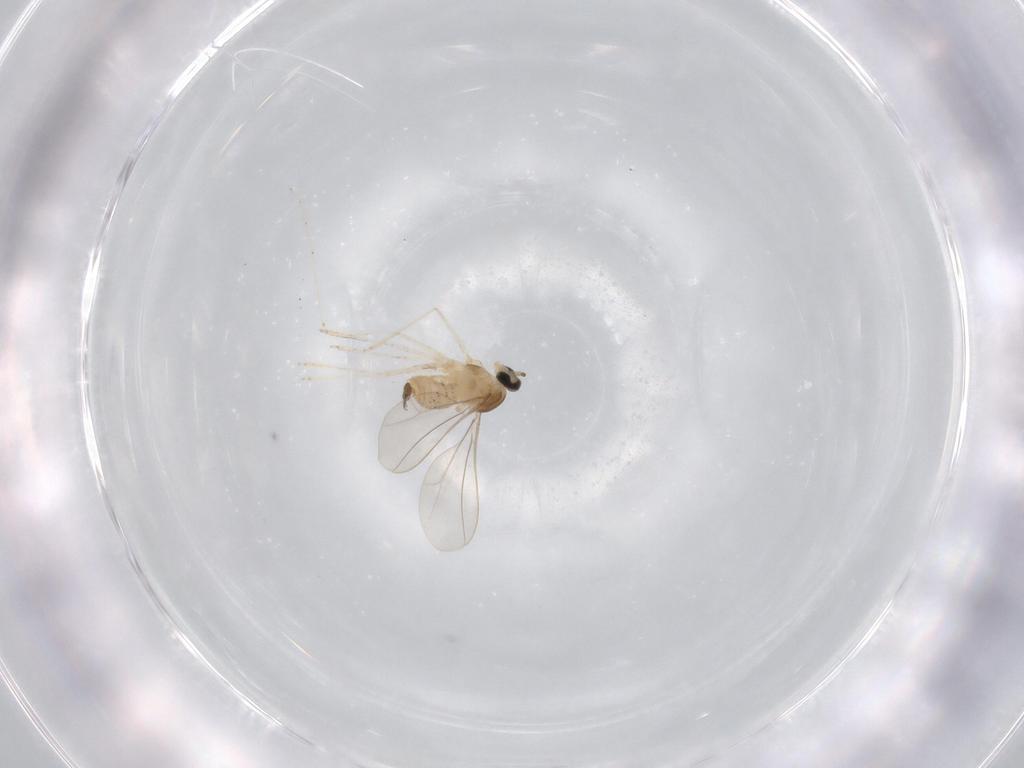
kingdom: Animalia
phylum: Arthropoda
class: Insecta
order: Diptera
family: Cecidomyiidae
